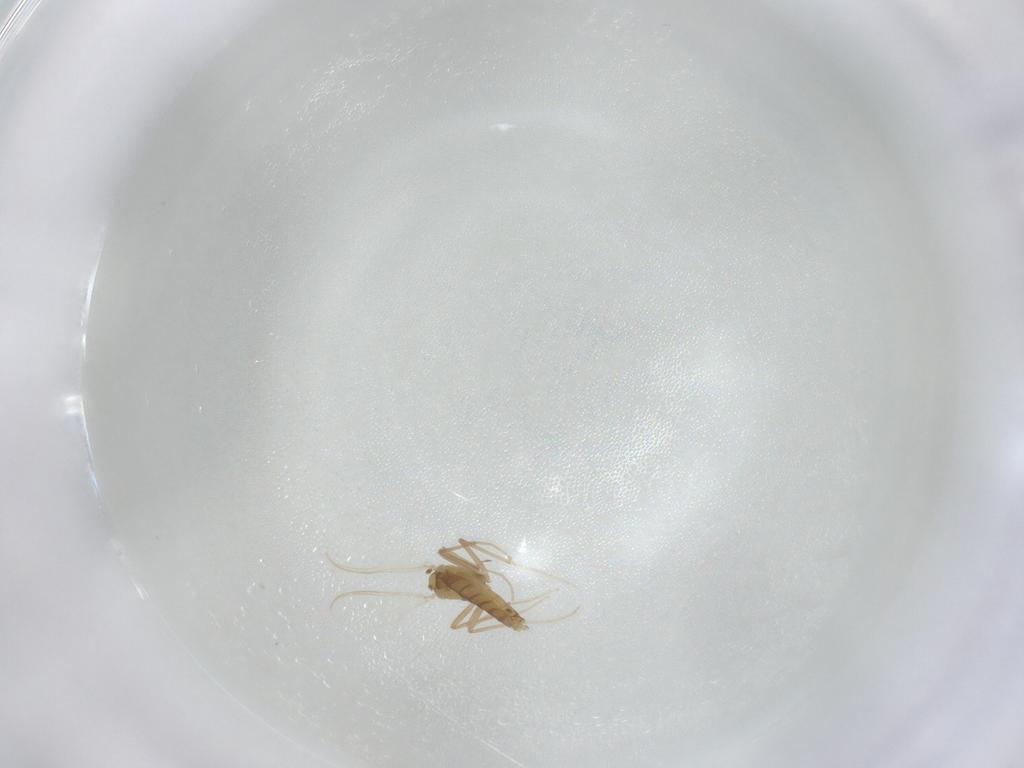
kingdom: Animalia
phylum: Arthropoda
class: Insecta
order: Diptera
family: Chironomidae
